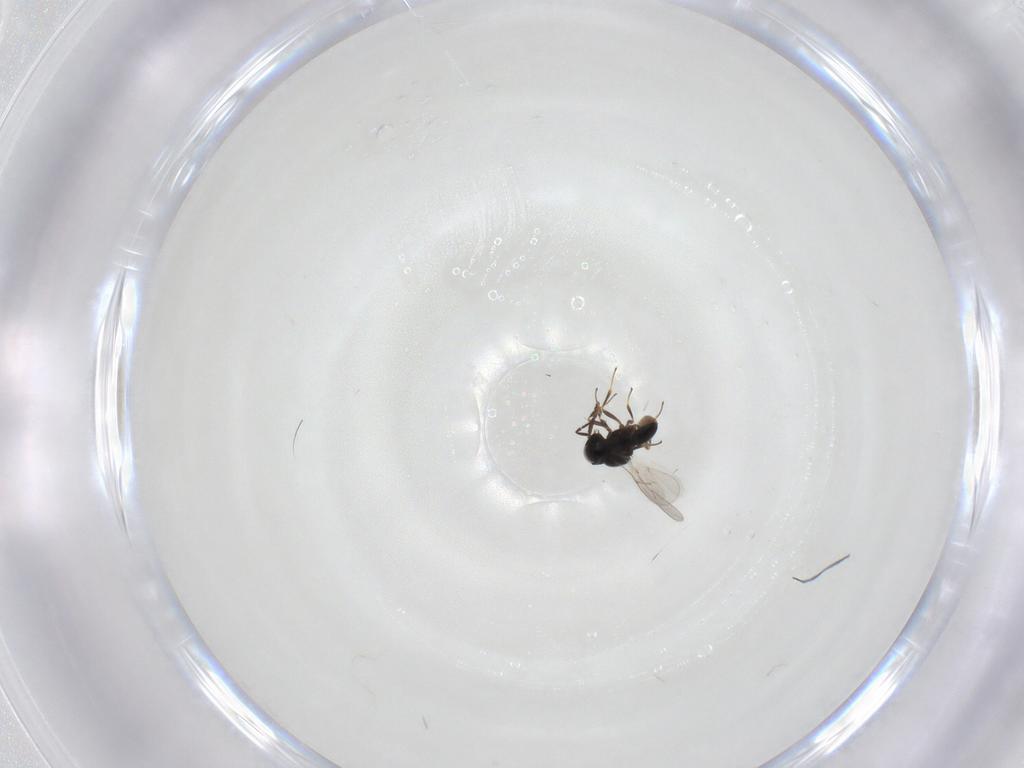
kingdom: Animalia
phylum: Arthropoda
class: Insecta
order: Hymenoptera
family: Scelionidae
